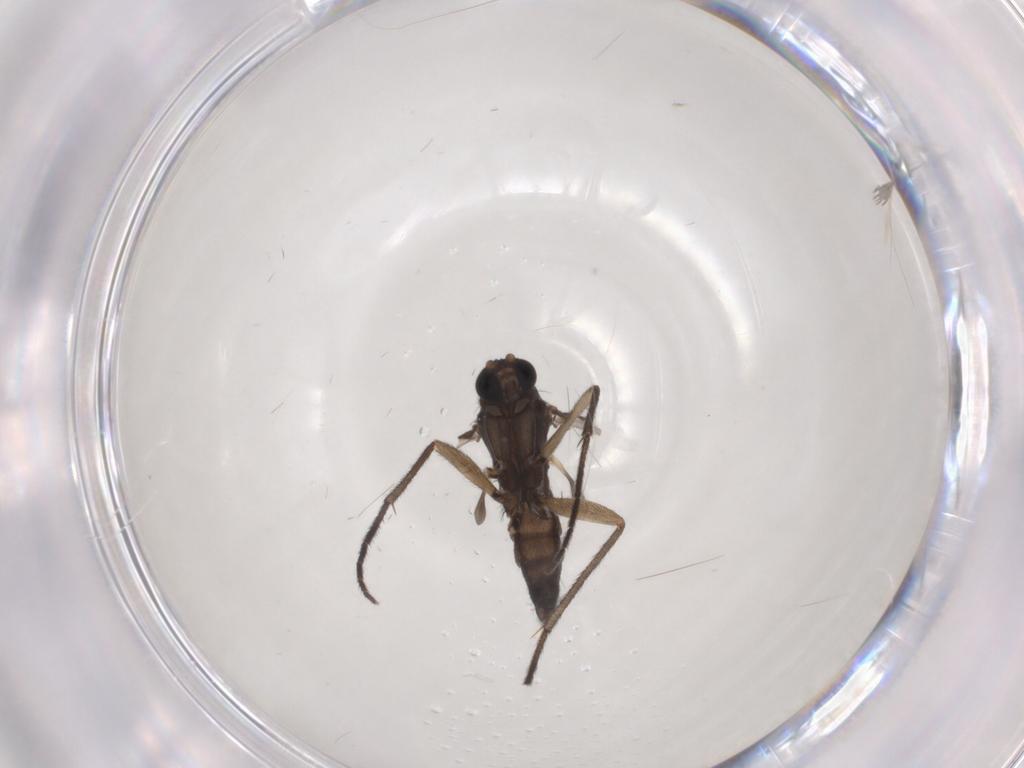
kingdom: Animalia
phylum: Arthropoda
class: Insecta
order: Diptera
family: Sciaridae
